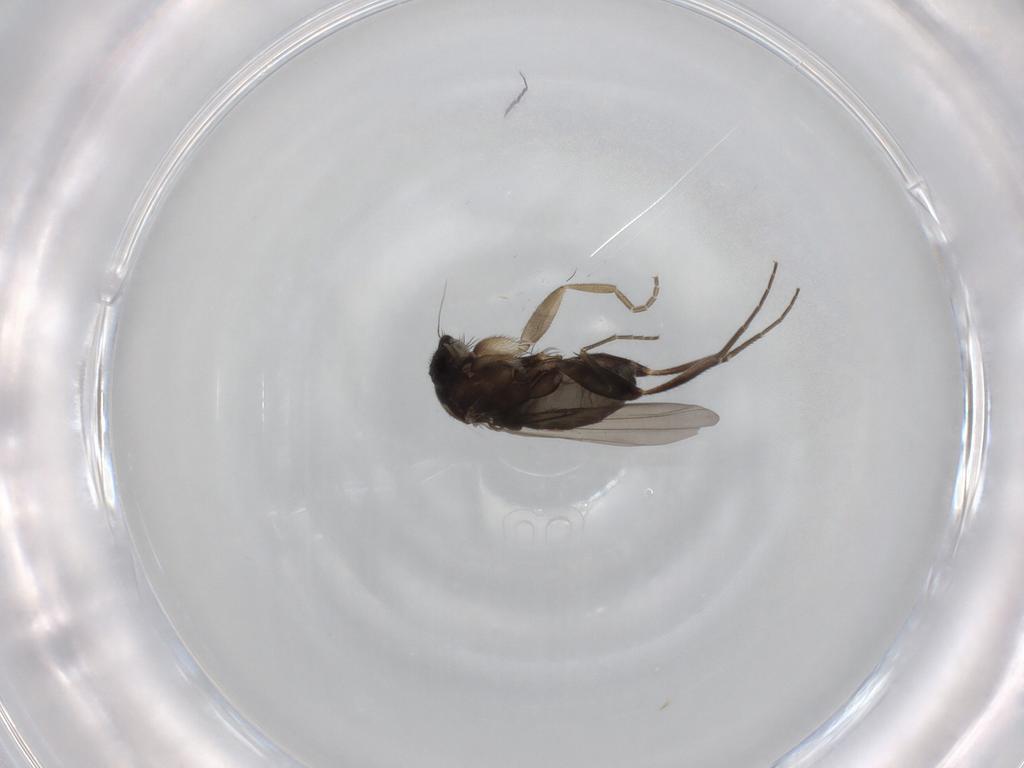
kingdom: Animalia
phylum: Arthropoda
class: Insecta
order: Diptera
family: Phoridae
